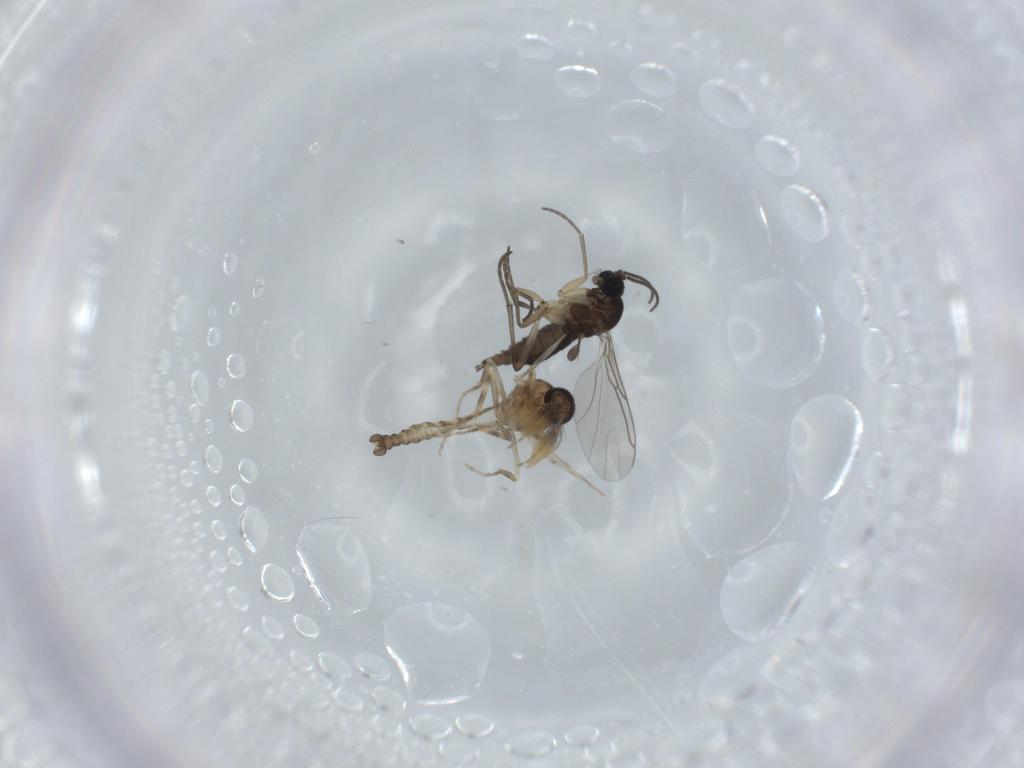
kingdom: Animalia
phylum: Arthropoda
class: Insecta
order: Diptera
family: Ceratopogonidae
